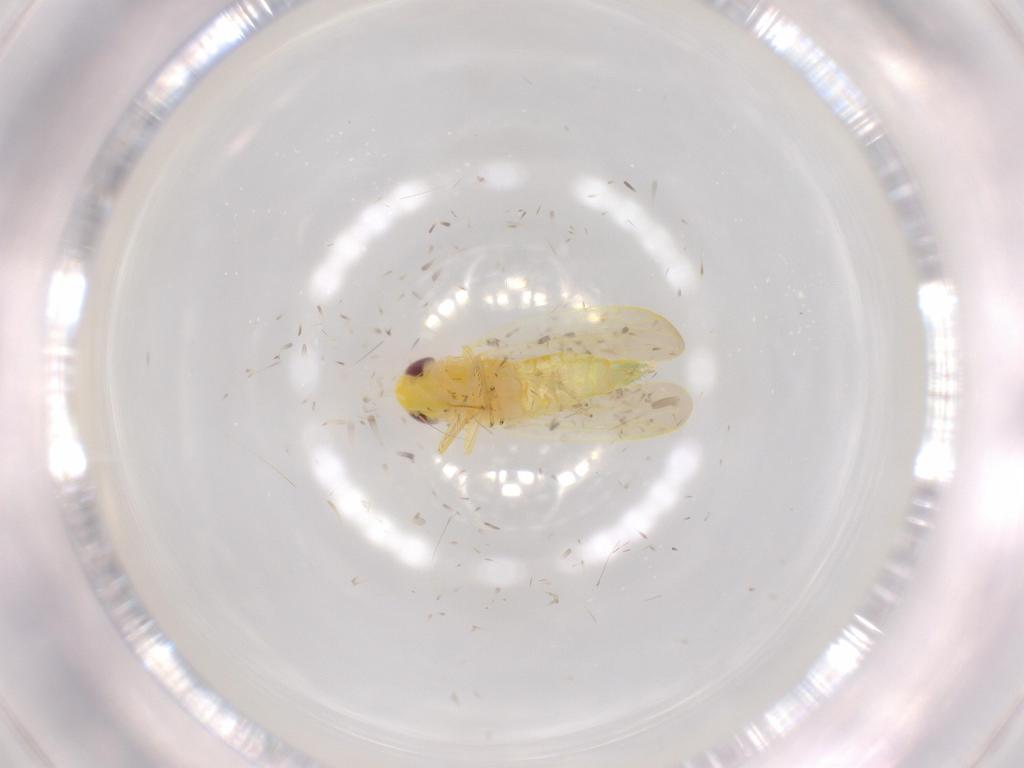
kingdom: Animalia
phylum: Arthropoda
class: Insecta
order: Hemiptera
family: Cicadellidae
